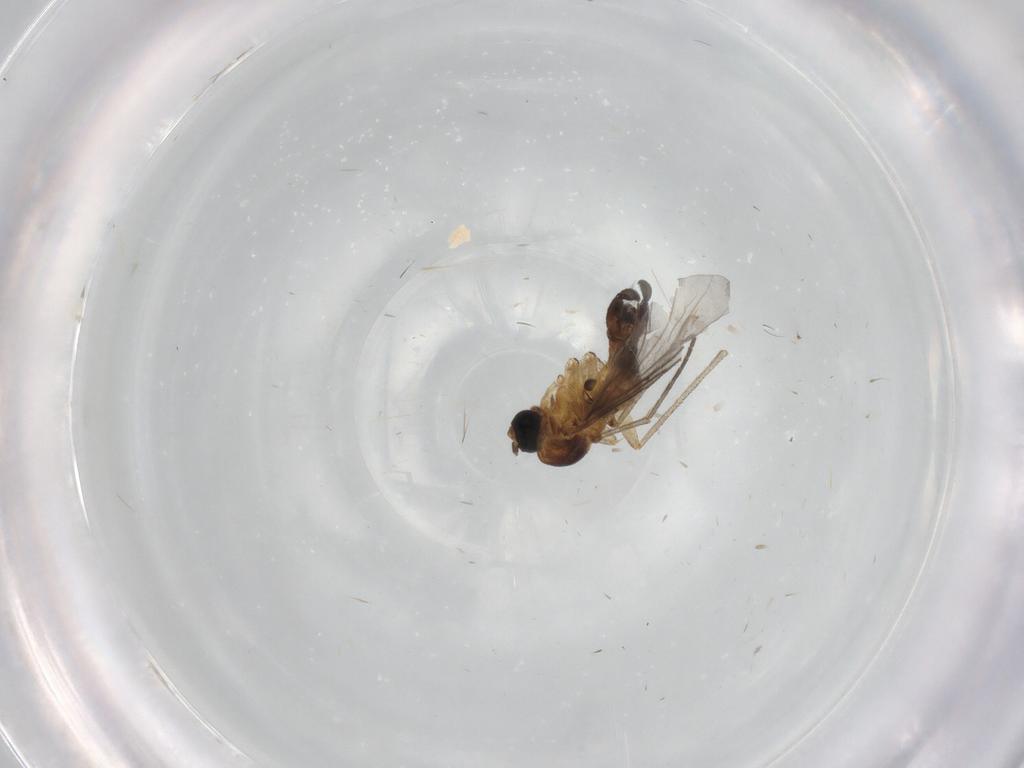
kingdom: Animalia
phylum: Arthropoda
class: Insecta
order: Diptera
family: Sciaridae
